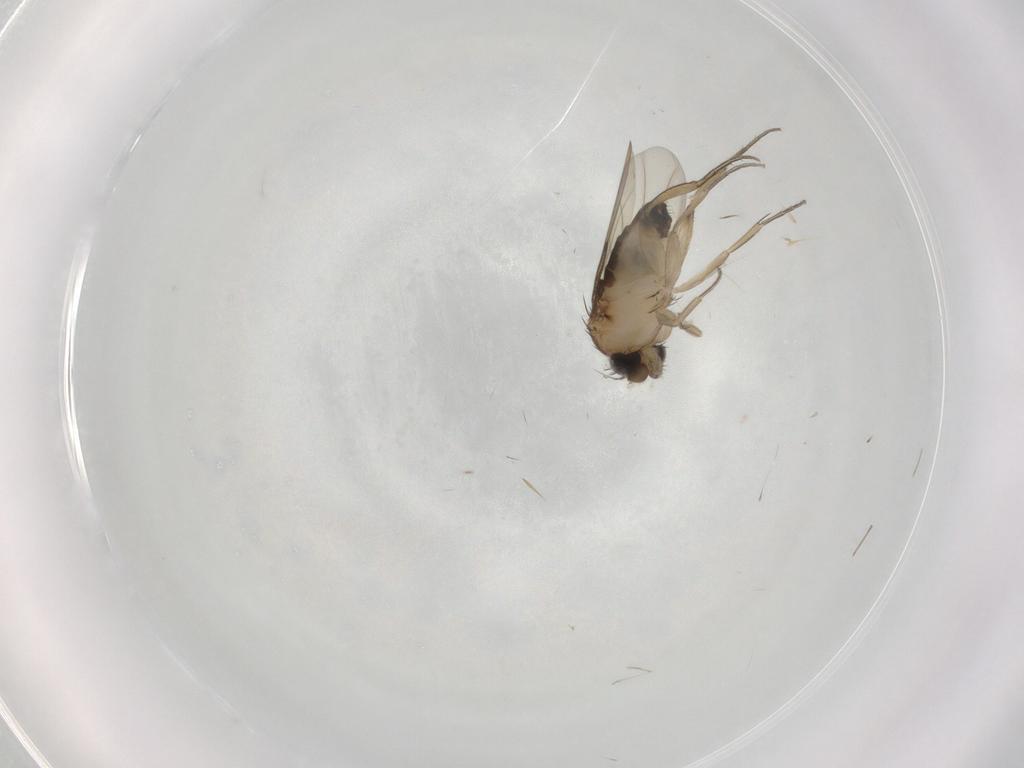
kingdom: Animalia
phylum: Arthropoda
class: Insecta
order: Diptera
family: Phoridae
